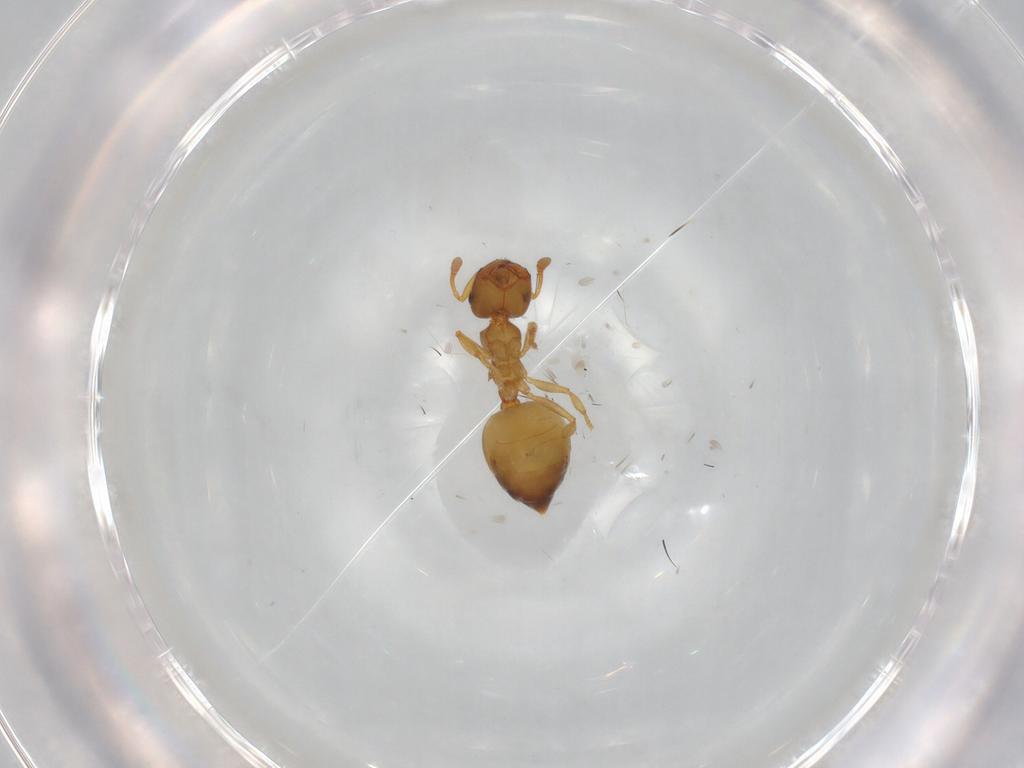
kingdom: Animalia
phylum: Arthropoda
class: Insecta
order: Hymenoptera
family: Formicidae
